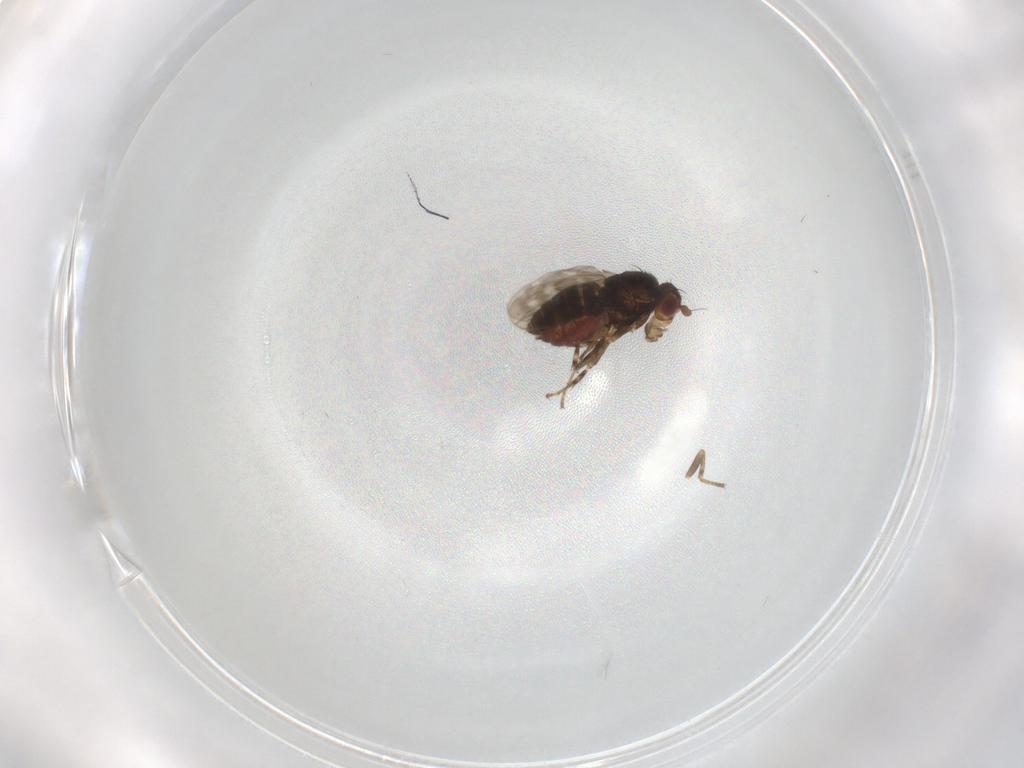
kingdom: Animalia
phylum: Arthropoda
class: Insecta
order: Diptera
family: Sphaeroceridae
